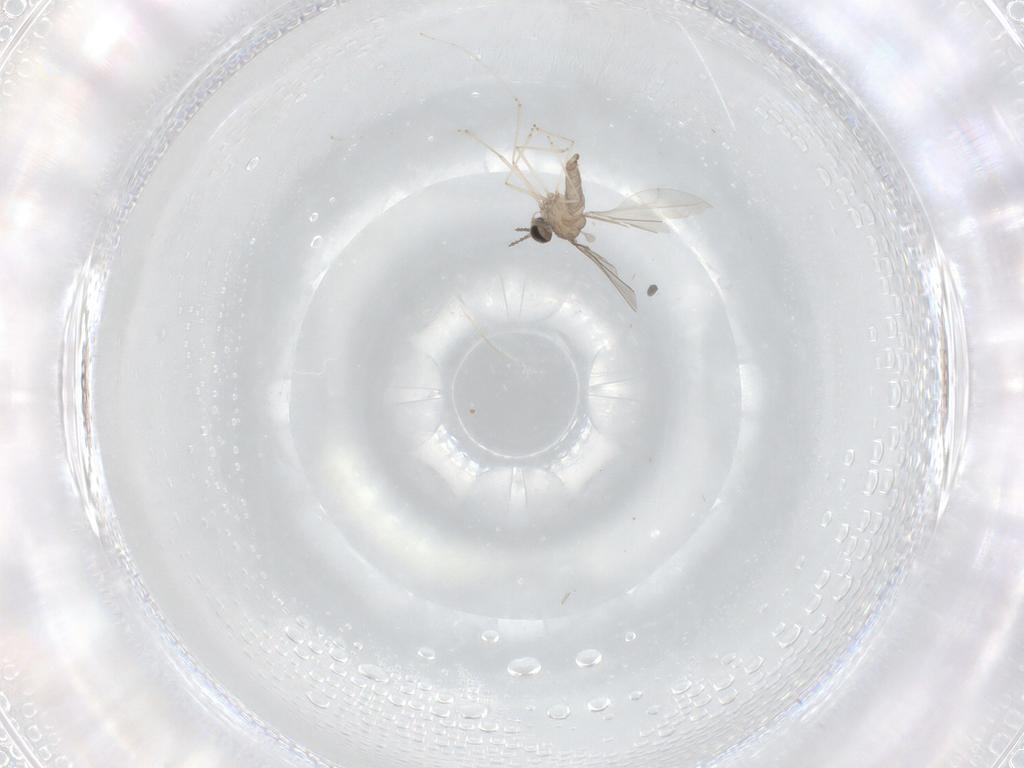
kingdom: Animalia
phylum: Arthropoda
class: Insecta
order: Diptera
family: Cecidomyiidae
